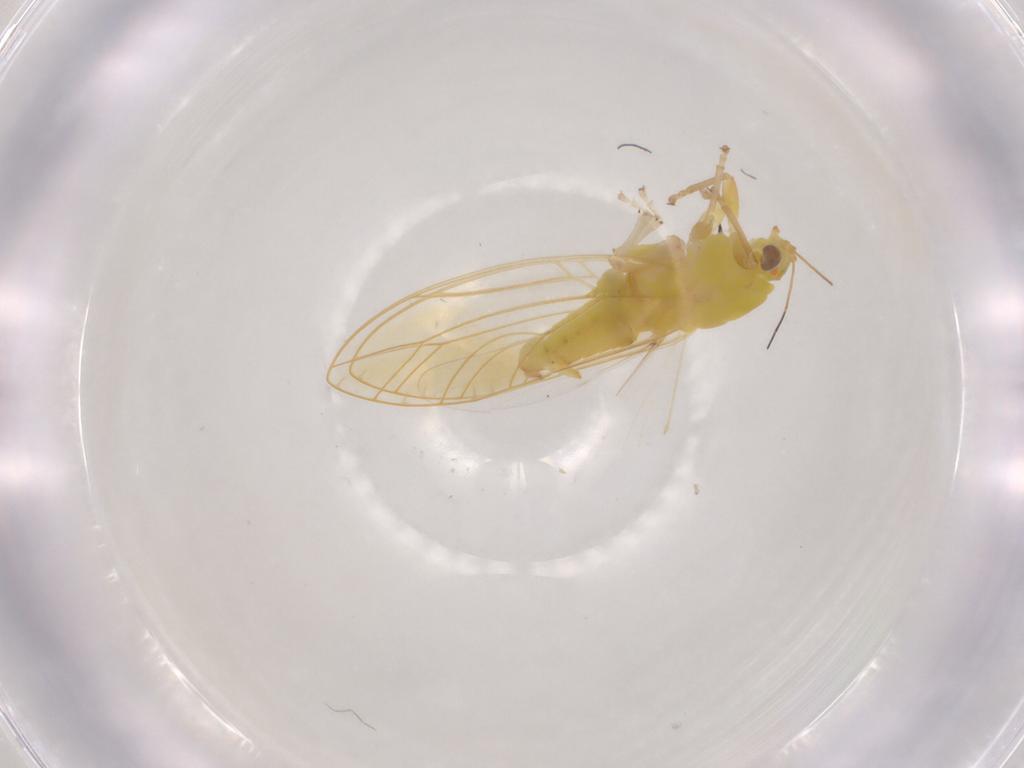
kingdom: Animalia
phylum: Arthropoda
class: Insecta
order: Hemiptera
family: Triozidae
